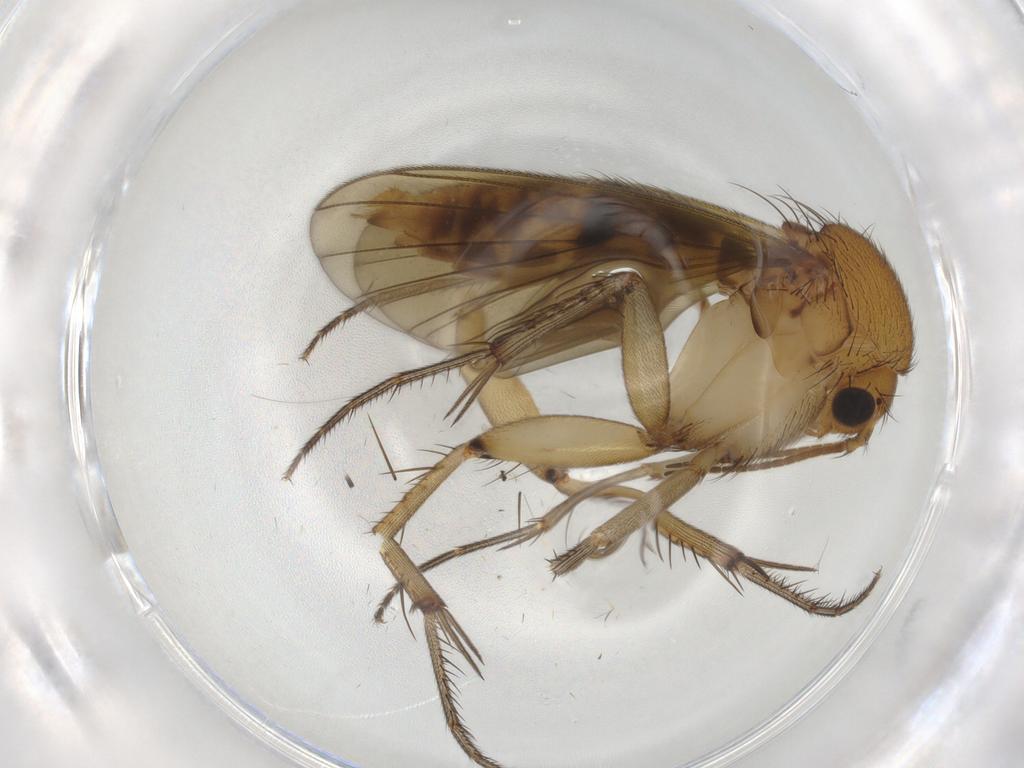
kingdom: Animalia
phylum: Arthropoda
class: Insecta
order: Diptera
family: Chironomidae
